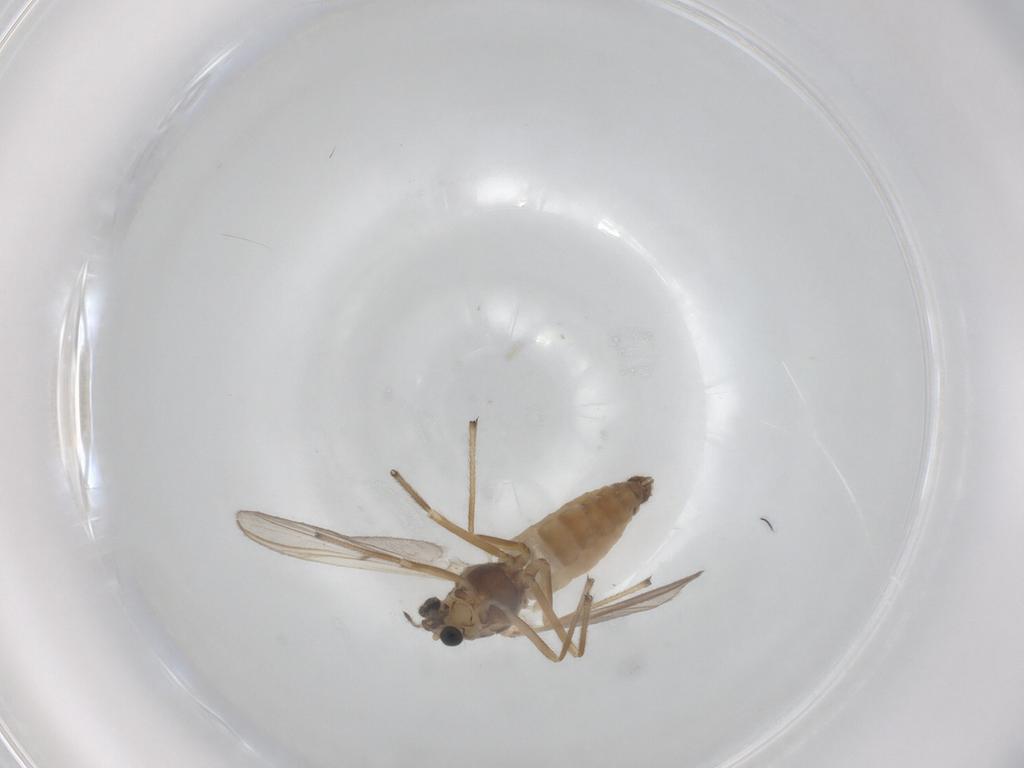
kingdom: Animalia
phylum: Arthropoda
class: Insecta
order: Diptera
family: Chironomidae
